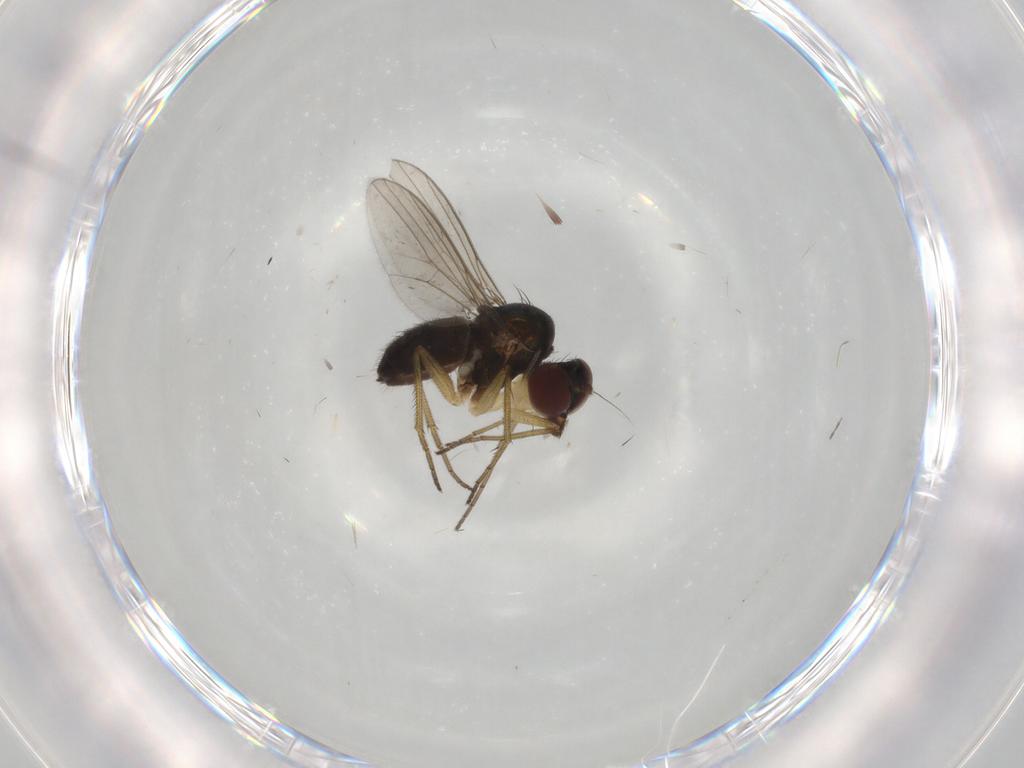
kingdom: Animalia
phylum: Arthropoda
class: Insecta
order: Diptera
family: Dolichopodidae
